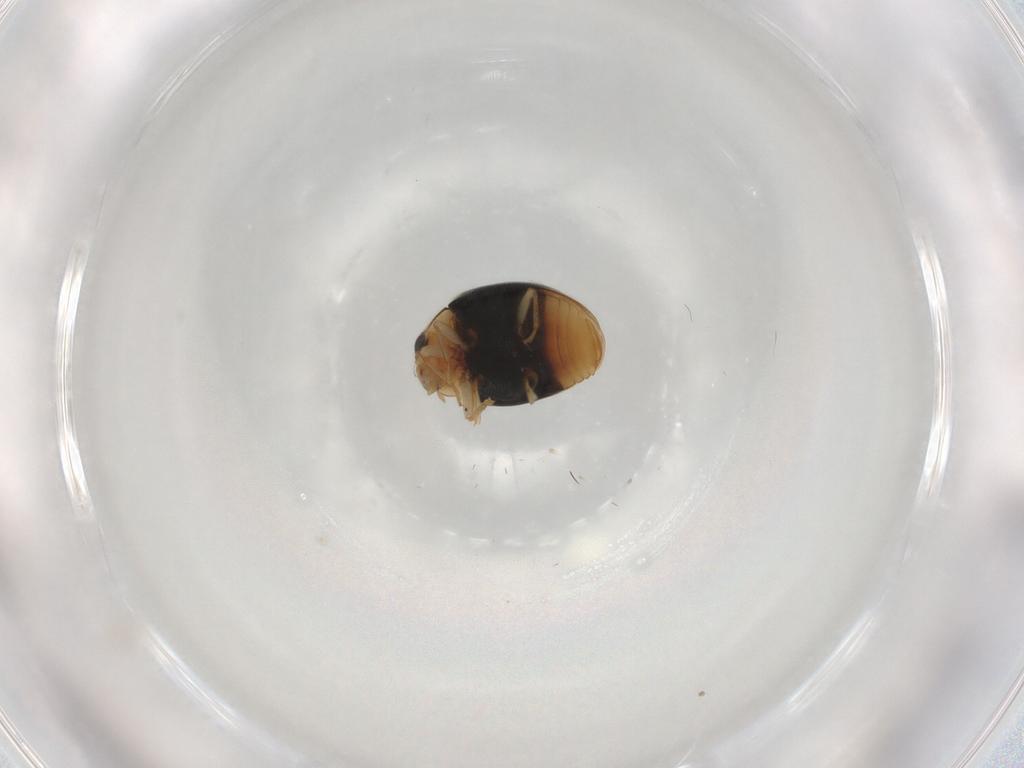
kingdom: Animalia
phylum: Arthropoda
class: Insecta
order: Coleoptera
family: Coccinellidae
